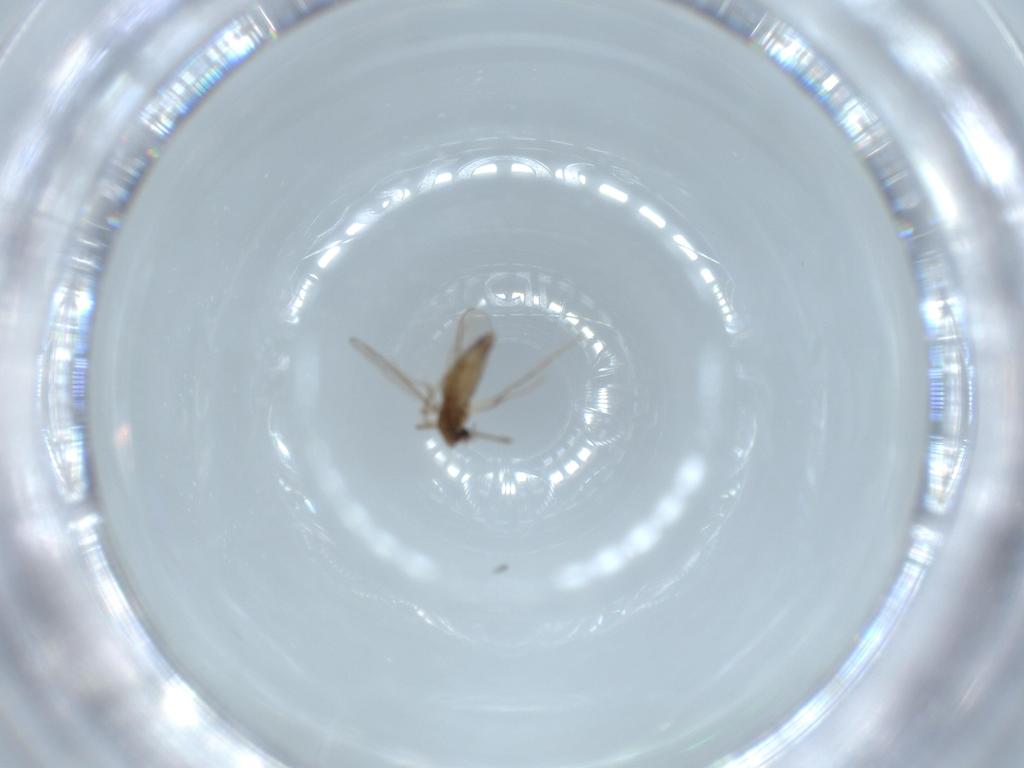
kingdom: Animalia
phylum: Arthropoda
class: Insecta
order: Diptera
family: Chironomidae
